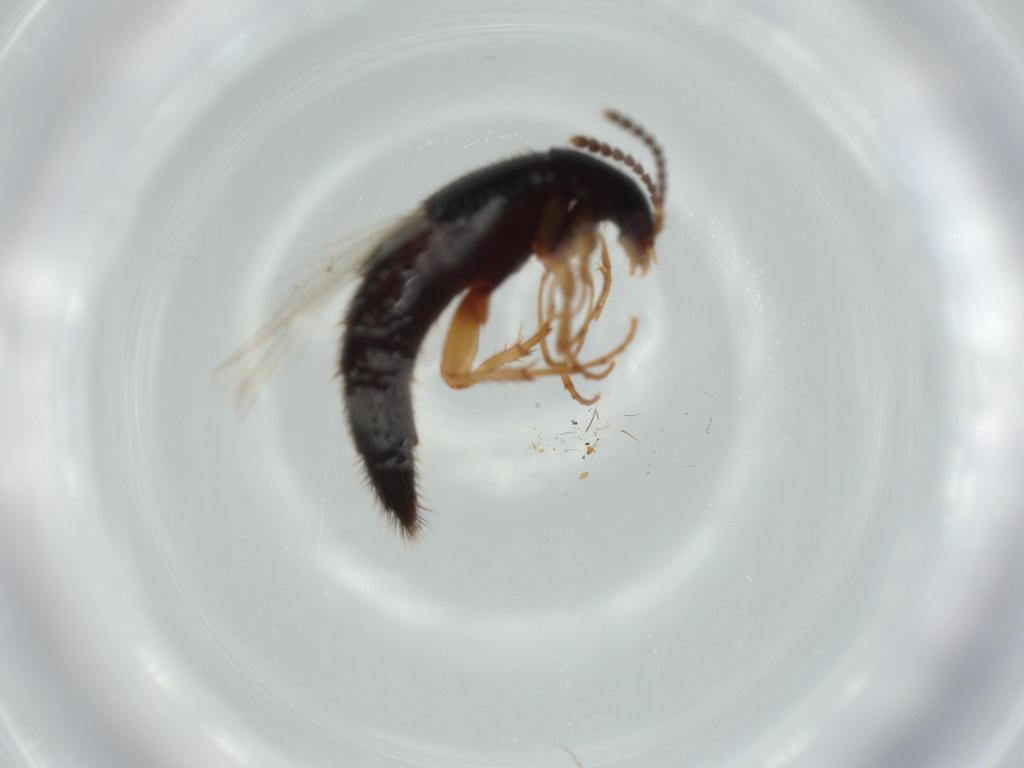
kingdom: Animalia
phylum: Arthropoda
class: Insecta
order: Coleoptera
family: Staphylinidae
